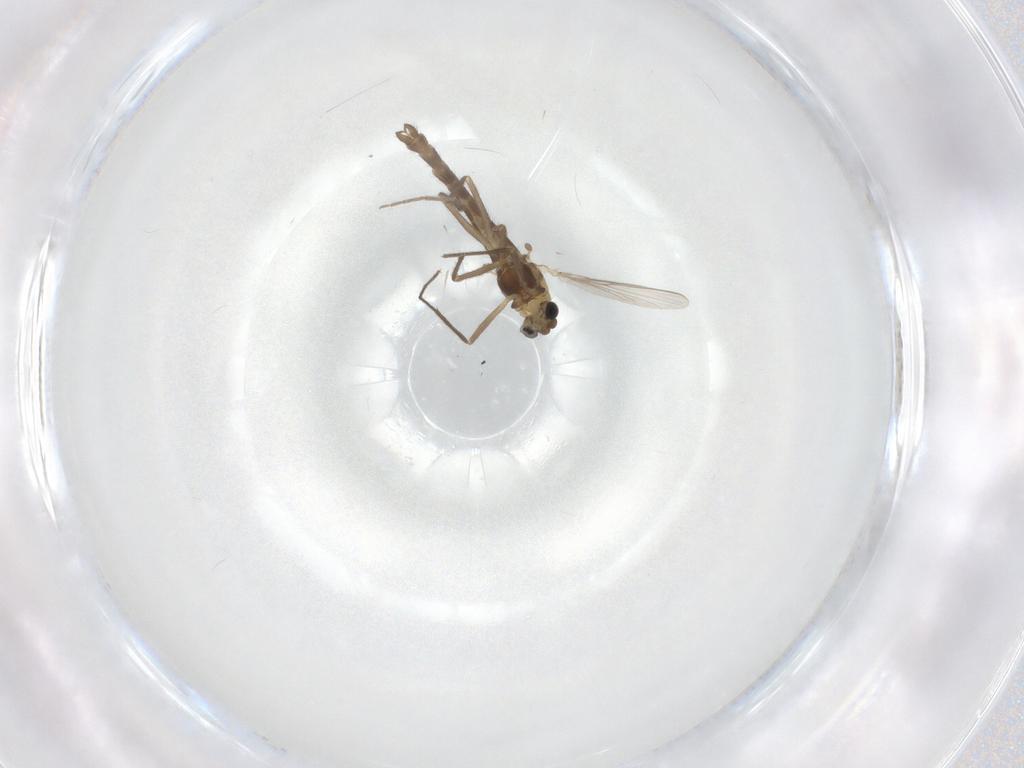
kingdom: Animalia
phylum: Arthropoda
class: Insecta
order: Diptera
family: Chironomidae
